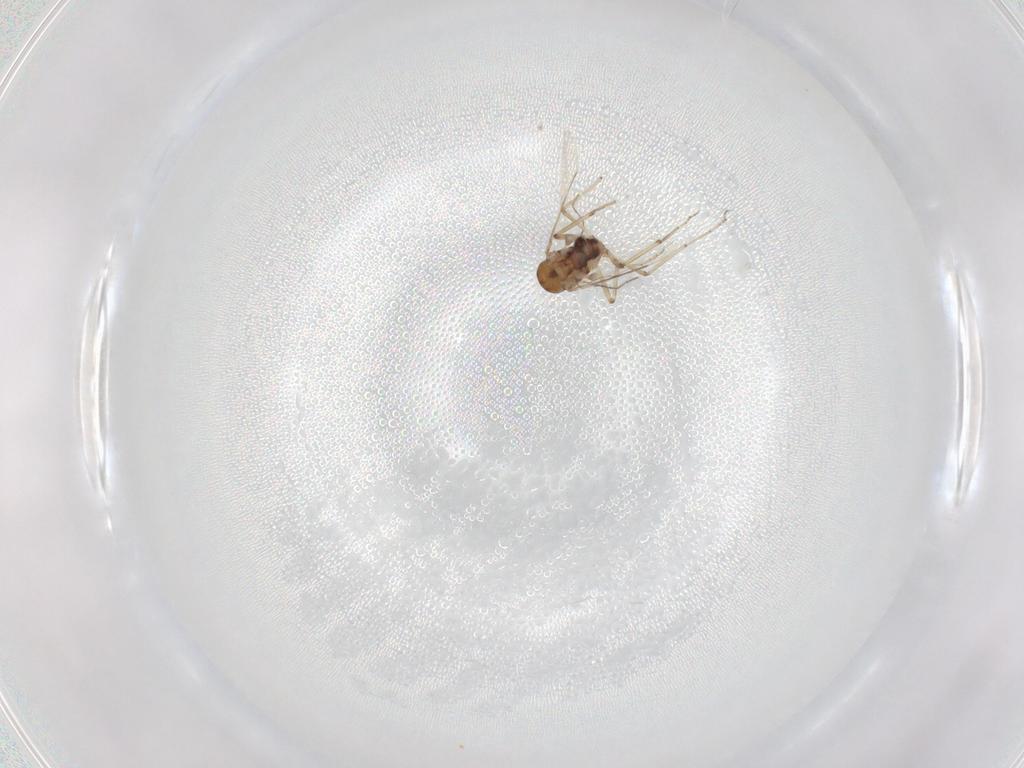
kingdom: Animalia
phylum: Arthropoda
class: Insecta
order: Diptera
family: Ceratopogonidae
